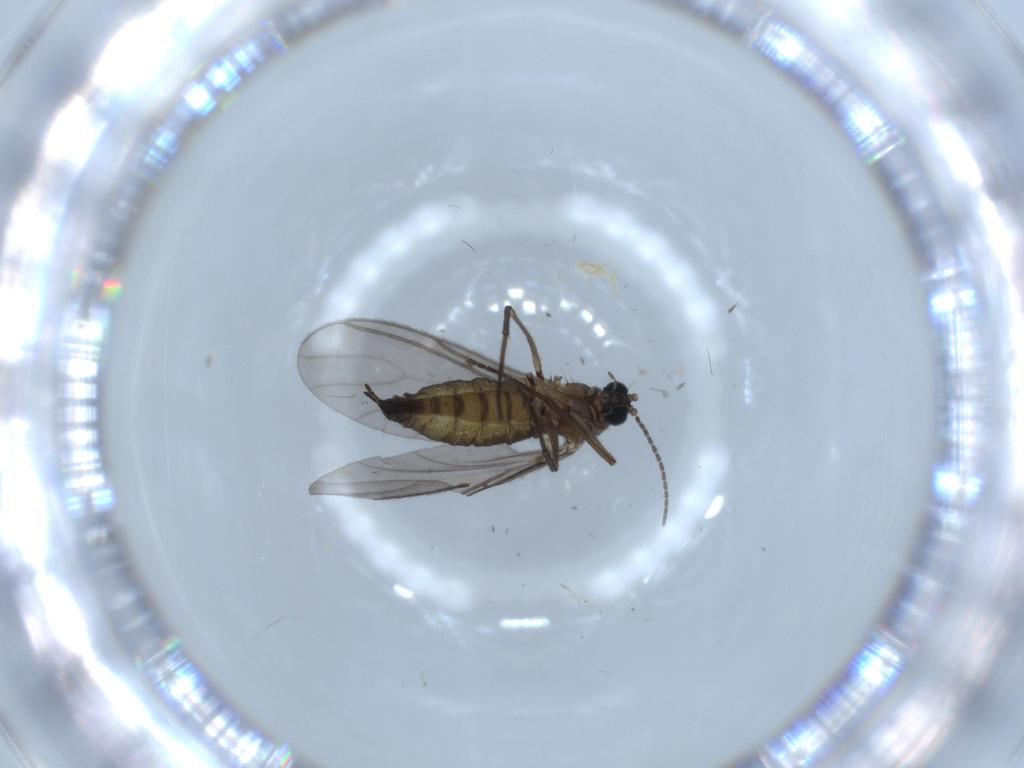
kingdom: Animalia
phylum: Arthropoda
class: Insecta
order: Diptera
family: Sciaridae
